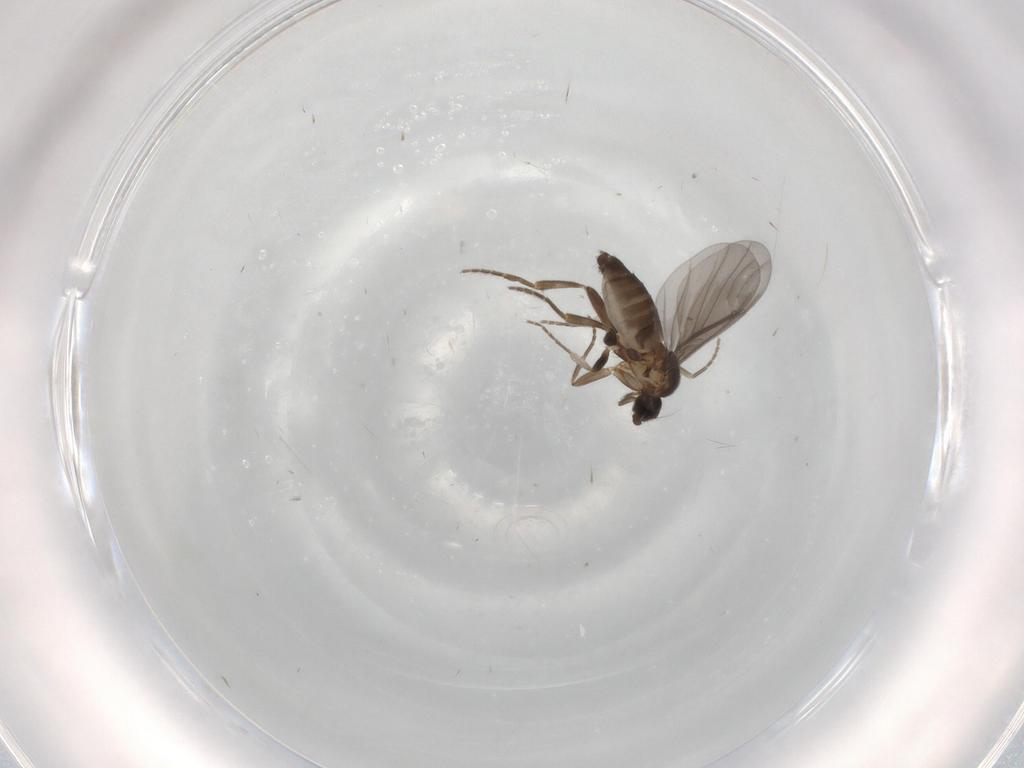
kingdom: Animalia
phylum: Arthropoda
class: Insecta
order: Diptera
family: Phoridae
